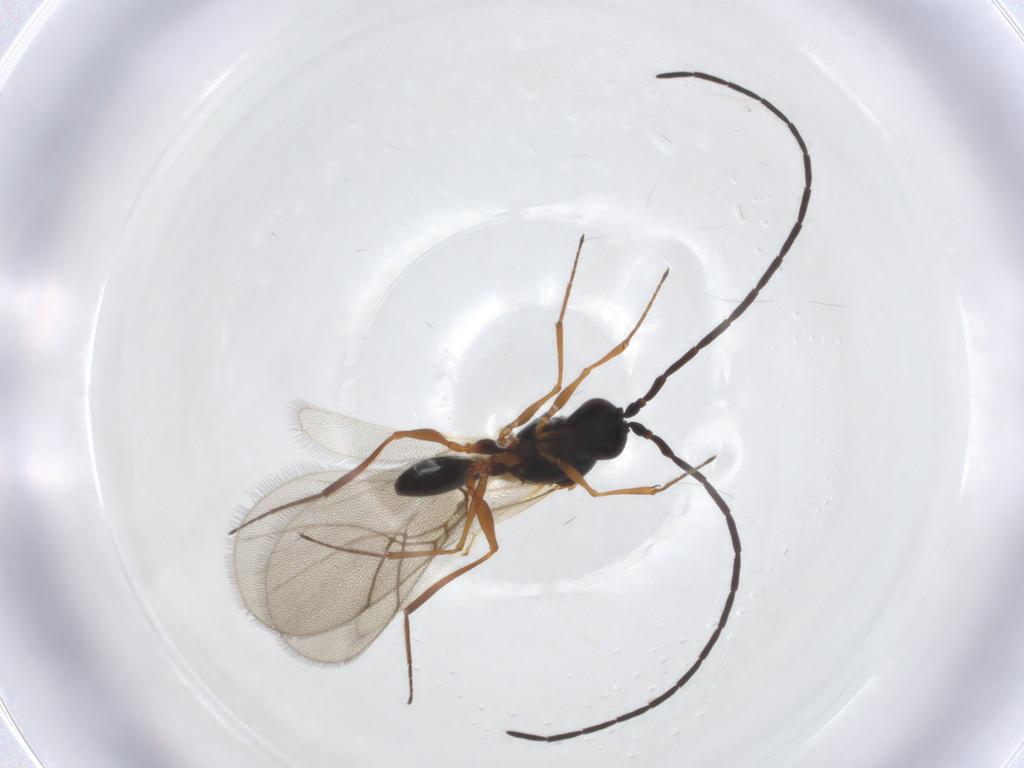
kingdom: Animalia
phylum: Arthropoda
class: Insecta
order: Hymenoptera
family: Figitidae
